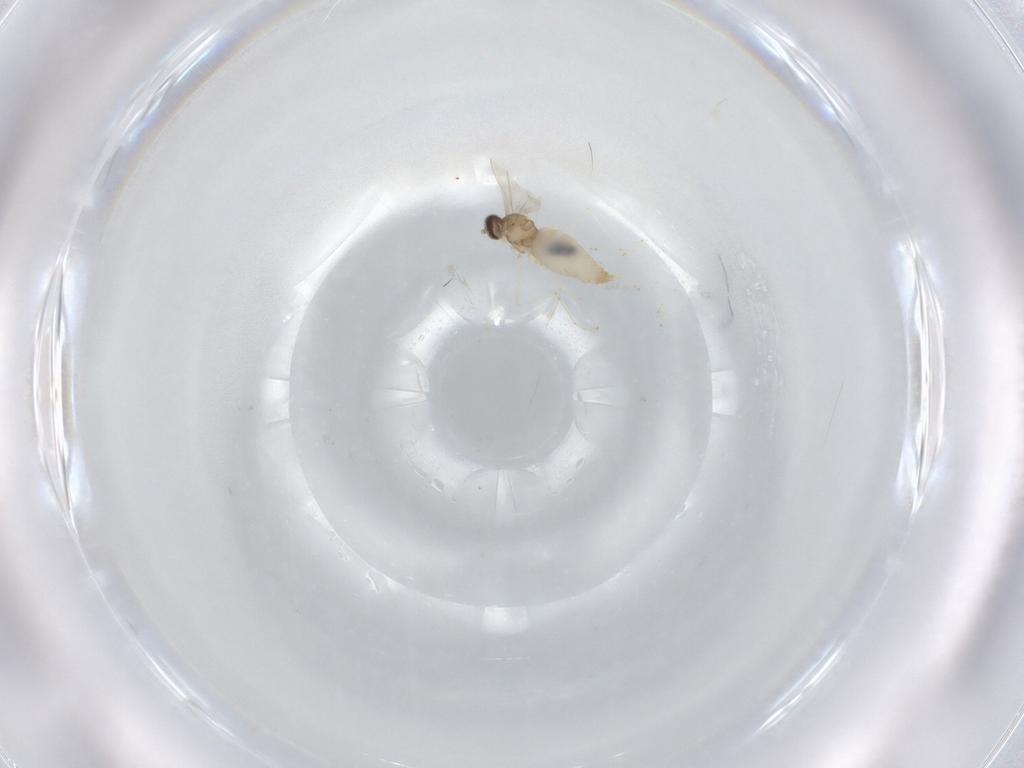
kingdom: Animalia
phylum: Arthropoda
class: Insecta
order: Diptera
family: Cecidomyiidae
